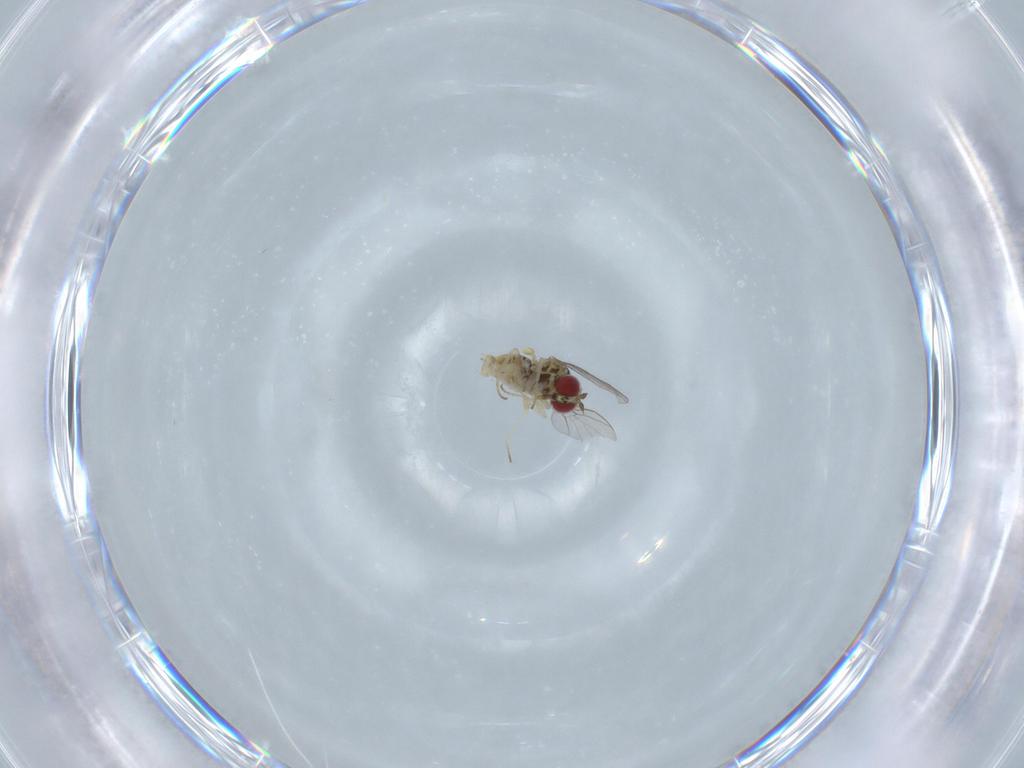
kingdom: Animalia
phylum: Arthropoda
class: Insecta
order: Diptera
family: Bombyliidae
